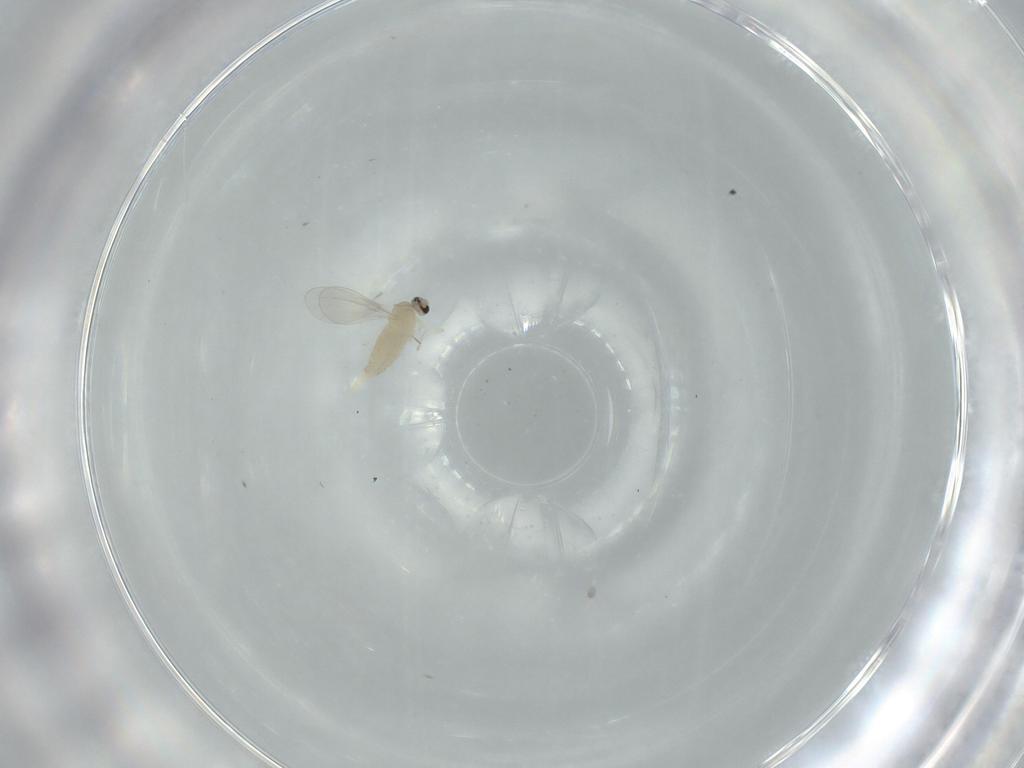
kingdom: Animalia
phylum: Arthropoda
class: Insecta
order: Diptera
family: Cecidomyiidae
